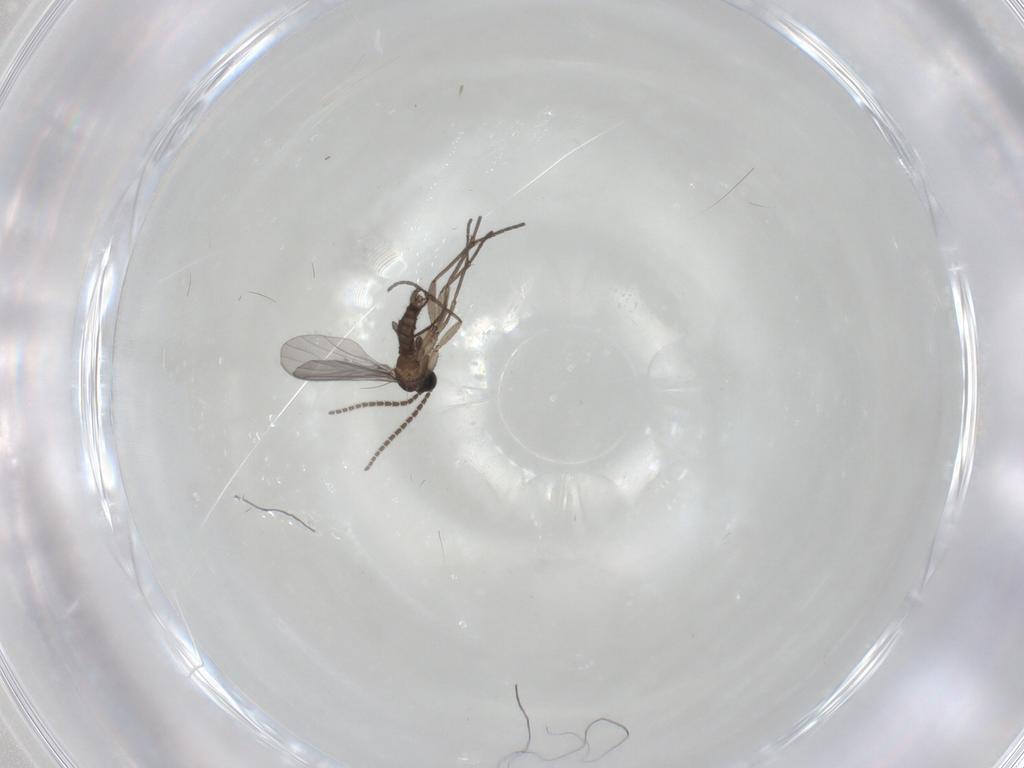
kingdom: Animalia
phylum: Arthropoda
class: Insecta
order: Diptera
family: Sciaridae
